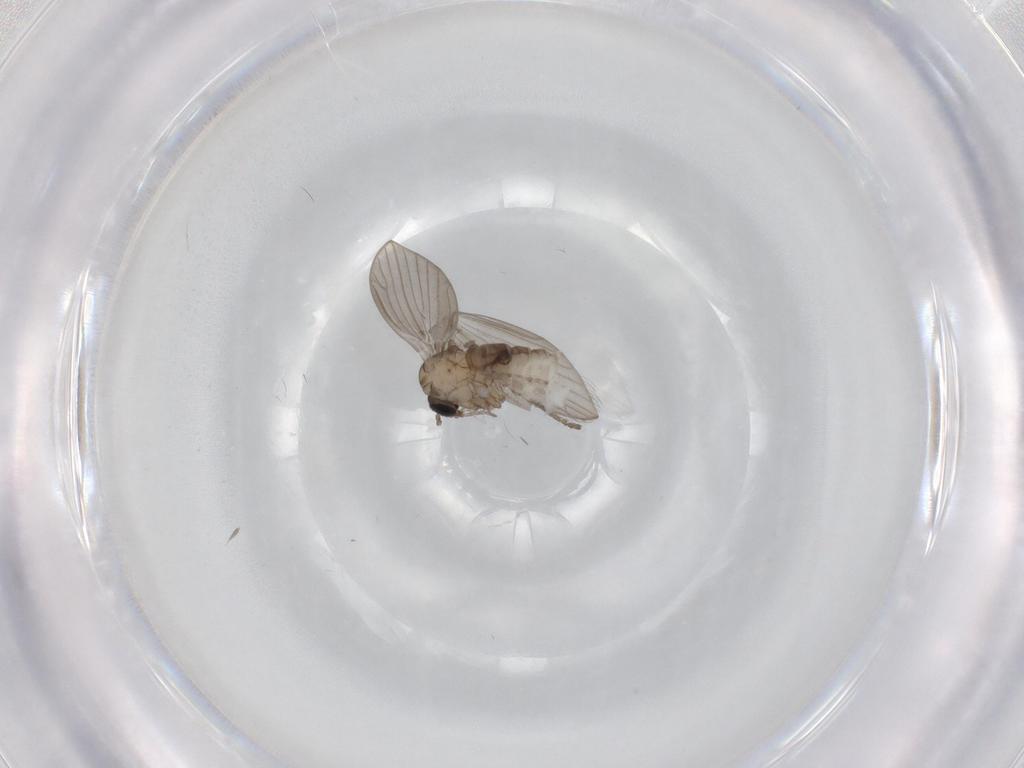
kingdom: Animalia
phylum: Arthropoda
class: Insecta
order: Diptera
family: Psychodidae
